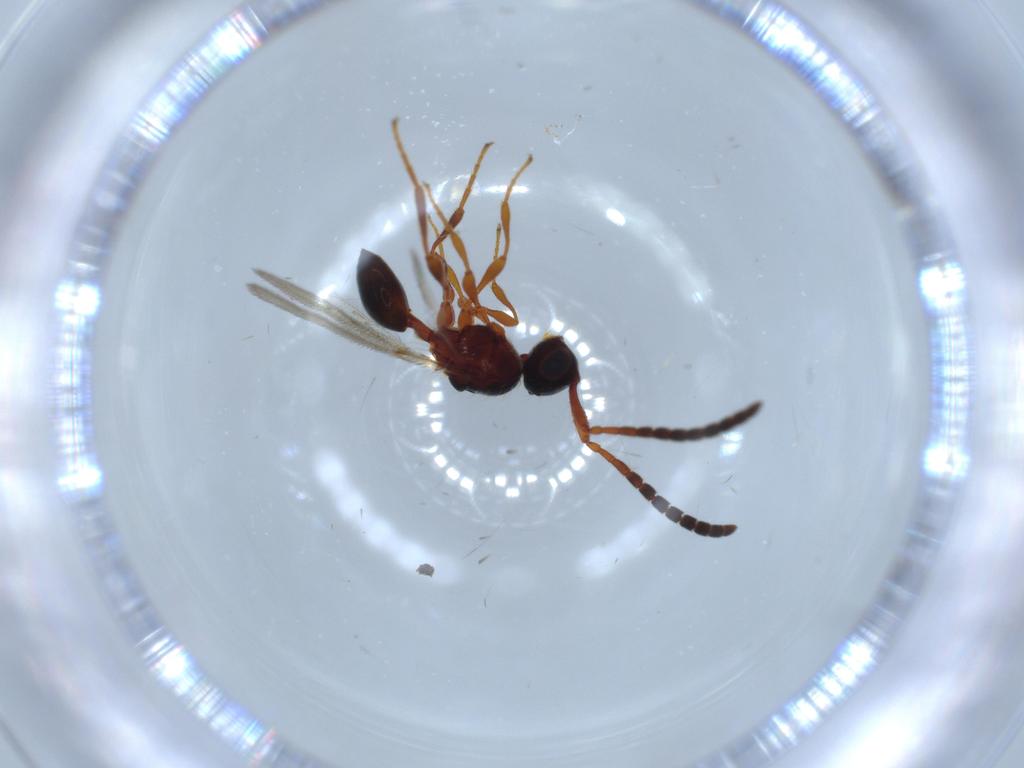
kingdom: Animalia
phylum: Arthropoda
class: Insecta
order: Hymenoptera
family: Diapriidae
